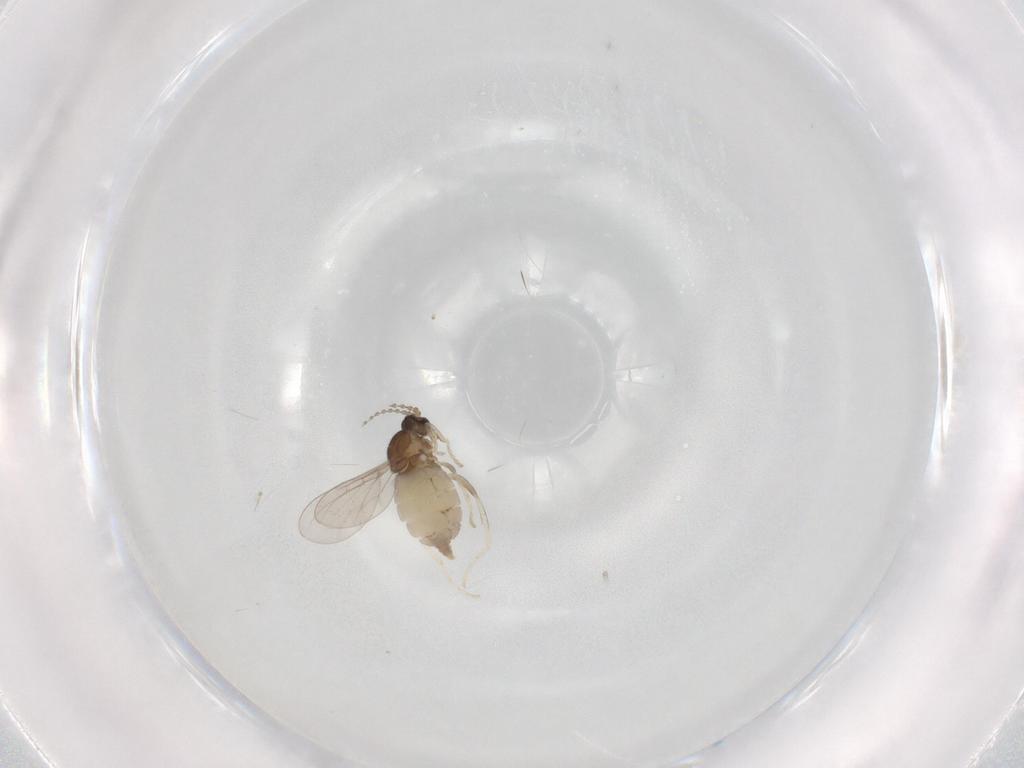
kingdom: Animalia
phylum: Arthropoda
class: Insecta
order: Diptera
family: Cecidomyiidae
